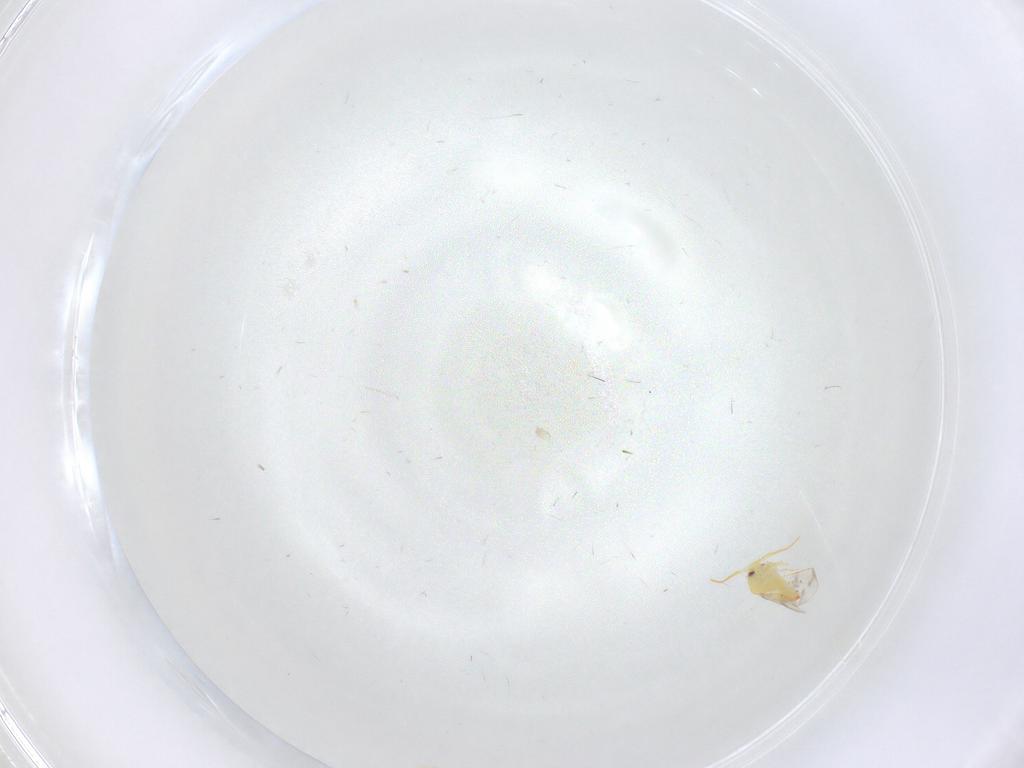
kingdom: Animalia
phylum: Arthropoda
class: Insecta
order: Hemiptera
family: Aleyrodidae
